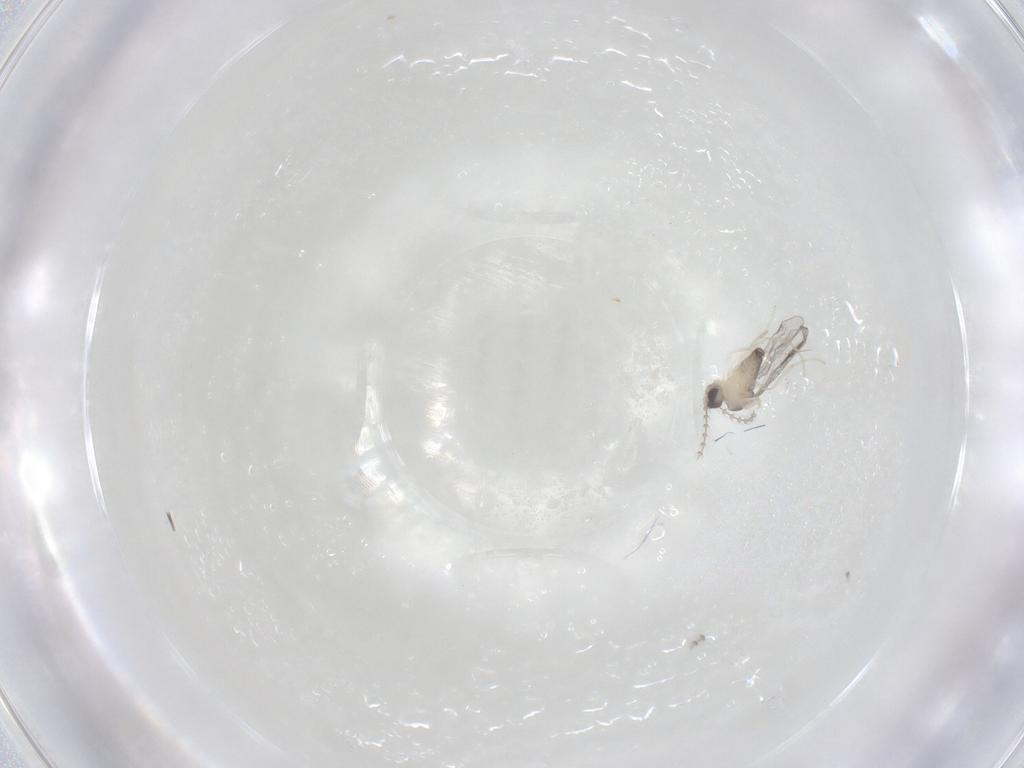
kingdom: Animalia
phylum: Arthropoda
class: Insecta
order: Diptera
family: Cecidomyiidae
